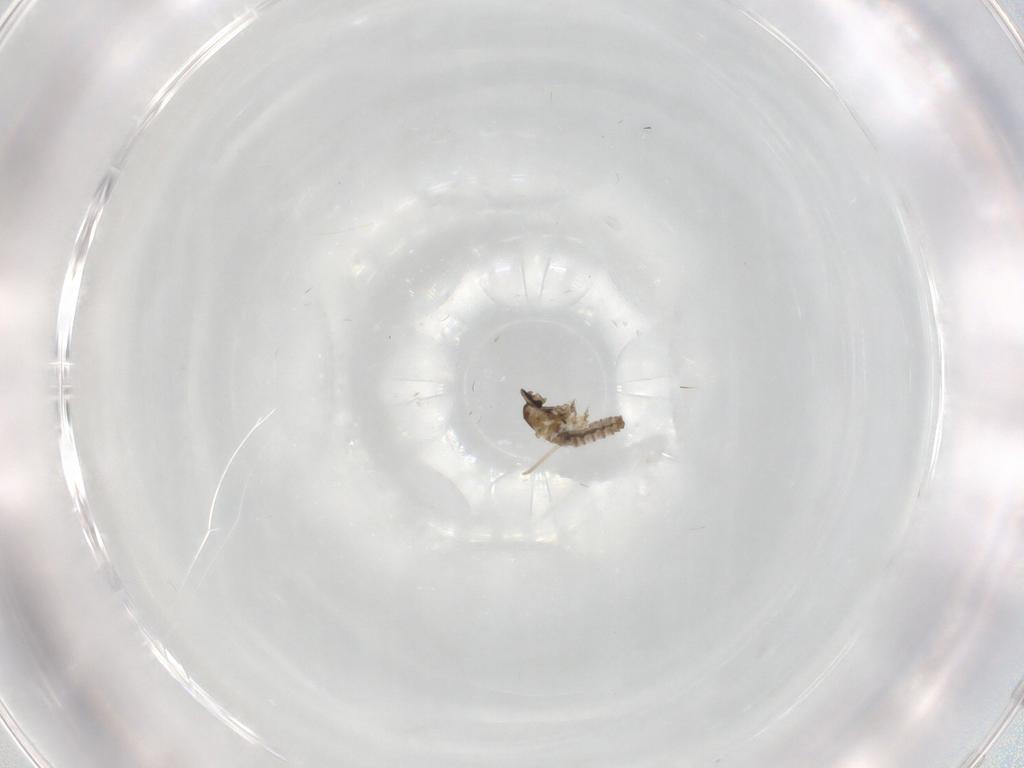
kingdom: Animalia
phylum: Arthropoda
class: Insecta
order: Diptera
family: Cecidomyiidae
